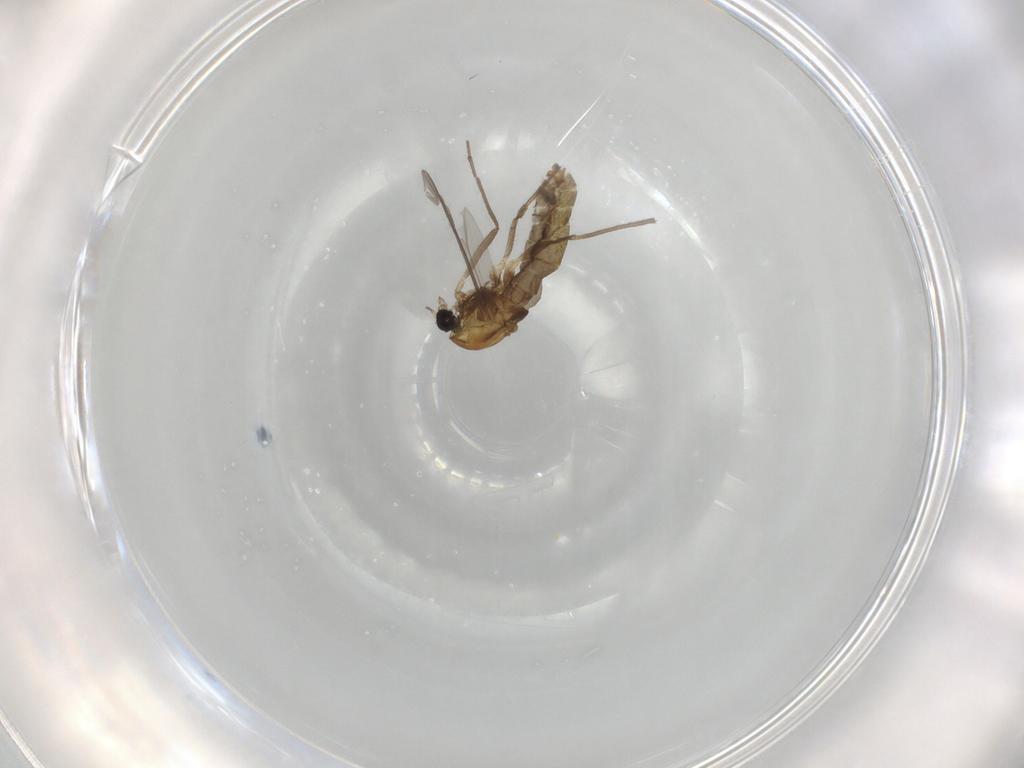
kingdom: Animalia
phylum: Arthropoda
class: Insecta
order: Diptera
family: Chironomidae
